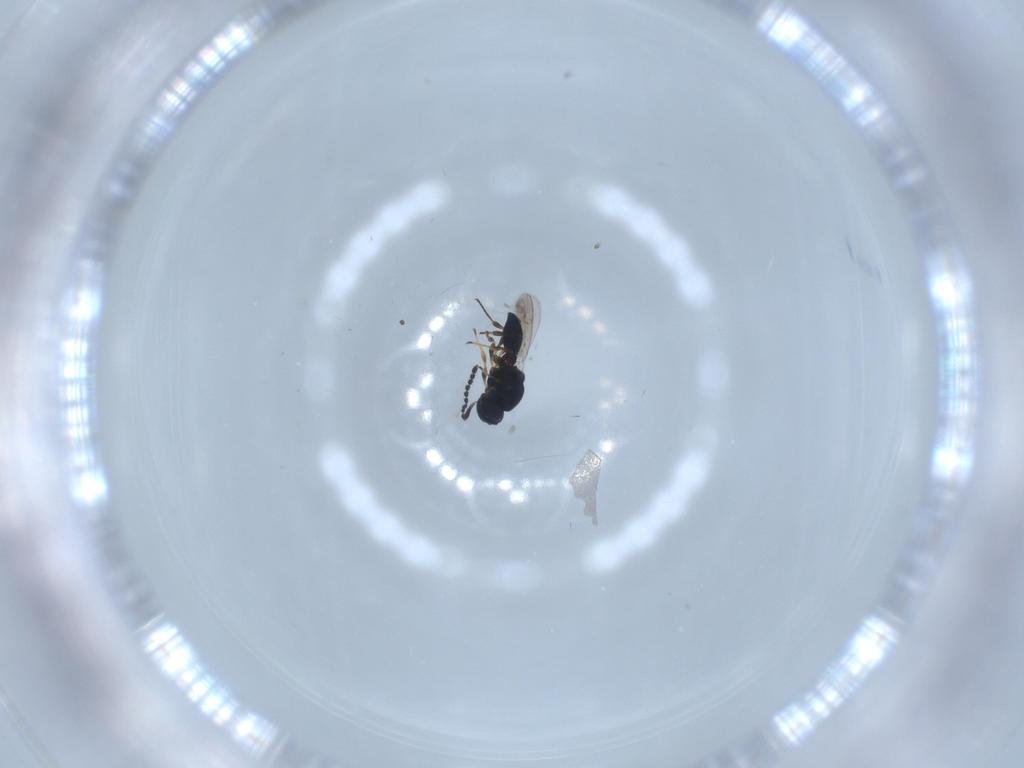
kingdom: Animalia
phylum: Arthropoda
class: Insecta
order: Hymenoptera
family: Platygastridae
